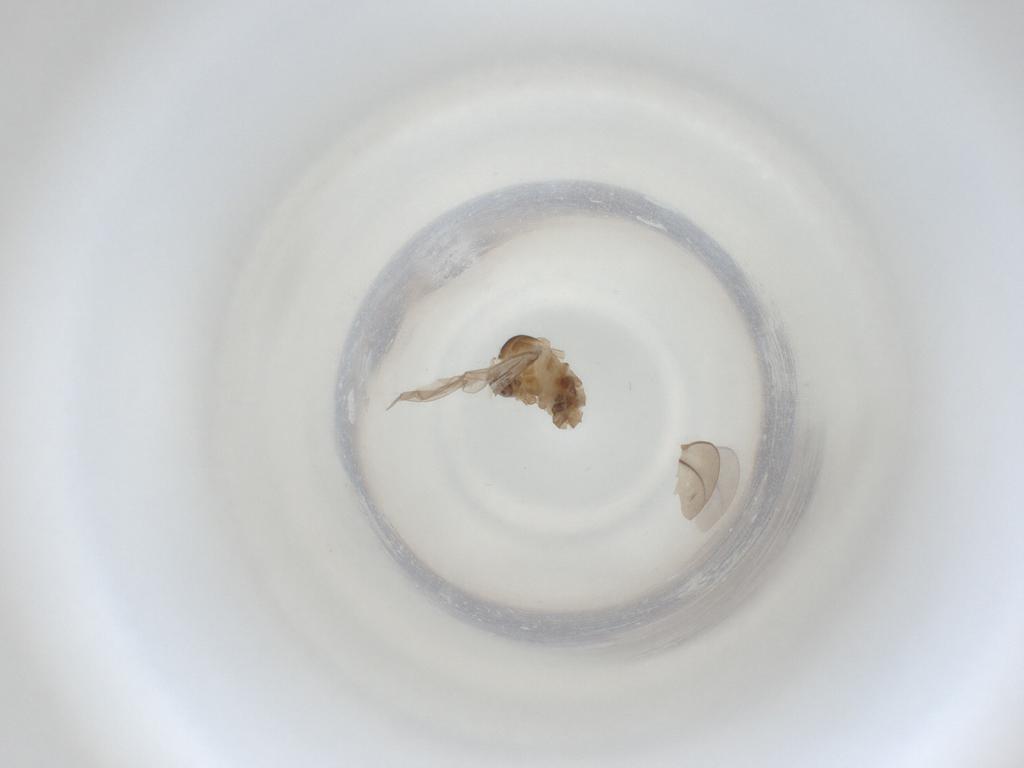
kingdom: Animalia
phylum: Arthropoda
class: Insecta
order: Diptera
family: Cecidomyiidae
